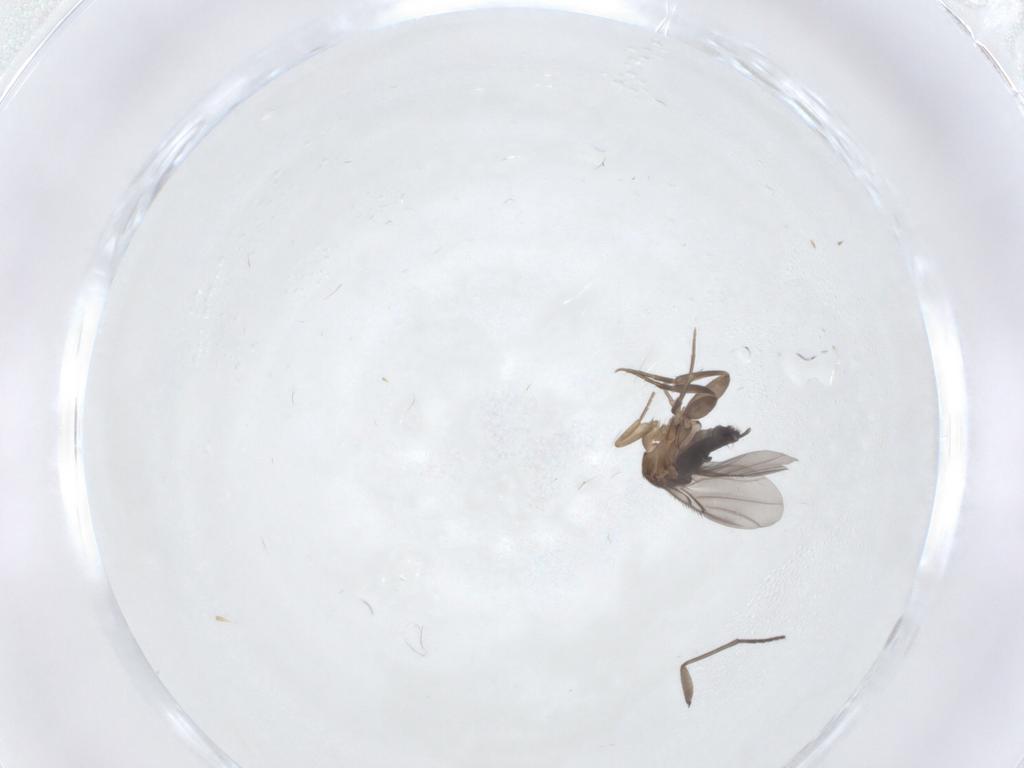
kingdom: Animalia
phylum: Arthropoda
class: Insecta
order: Diptera
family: Phoridae
